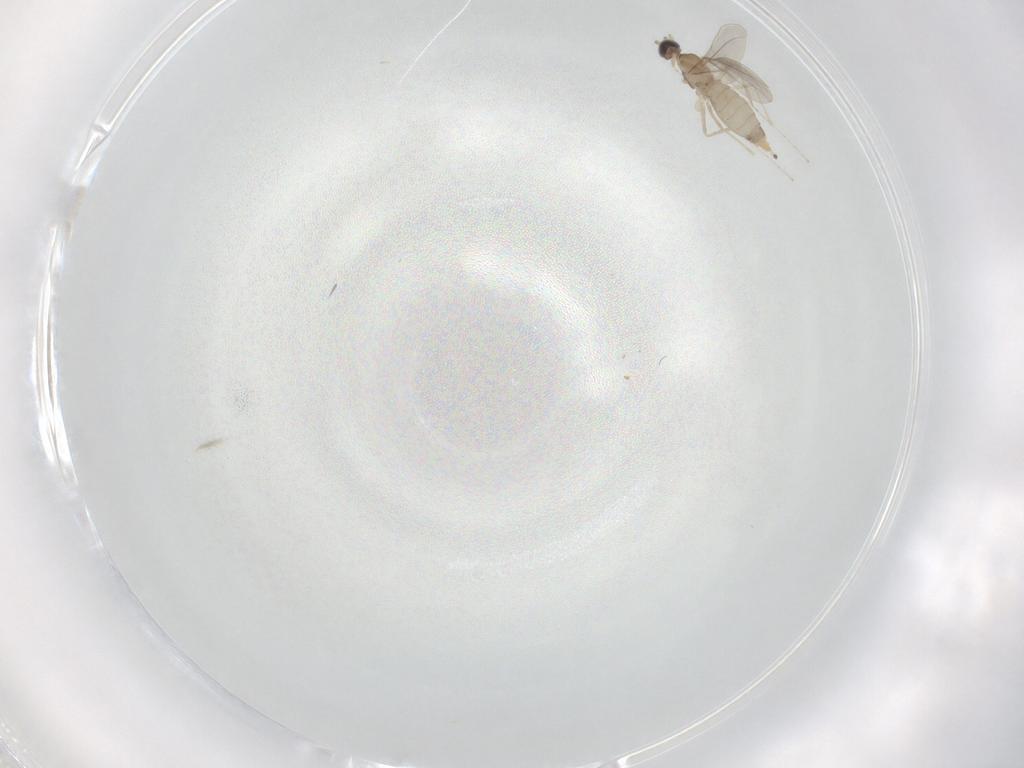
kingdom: Animalia
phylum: Arthropoda
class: Insecta
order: Diptera
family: Cecidomyiidae
